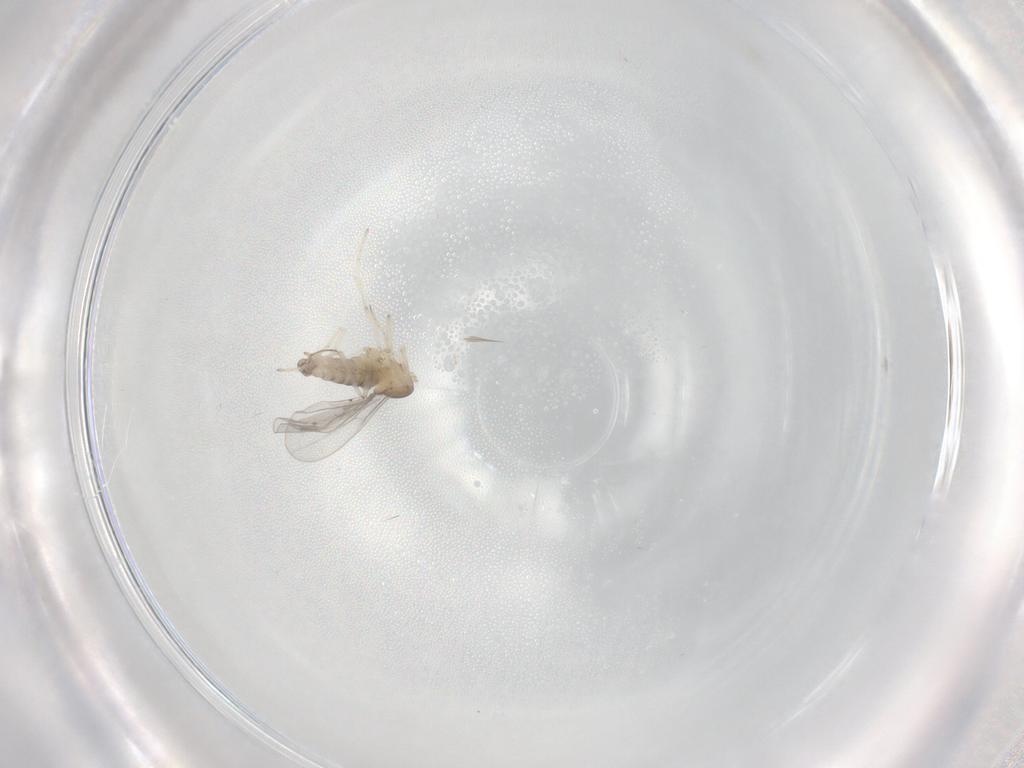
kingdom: Animalia
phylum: Arthropoda
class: Insecta
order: Diptera
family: Cecidomyiidae
